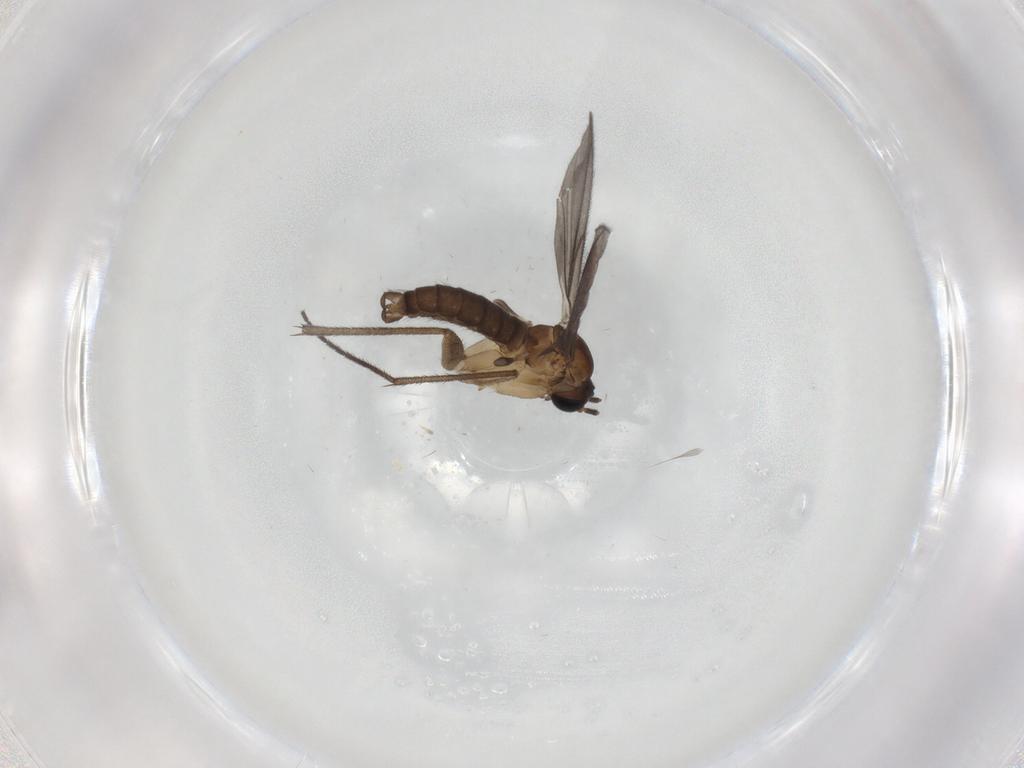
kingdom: Animalia
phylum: Arthropoda
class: Insecta
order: Diptera
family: Sciaridae
